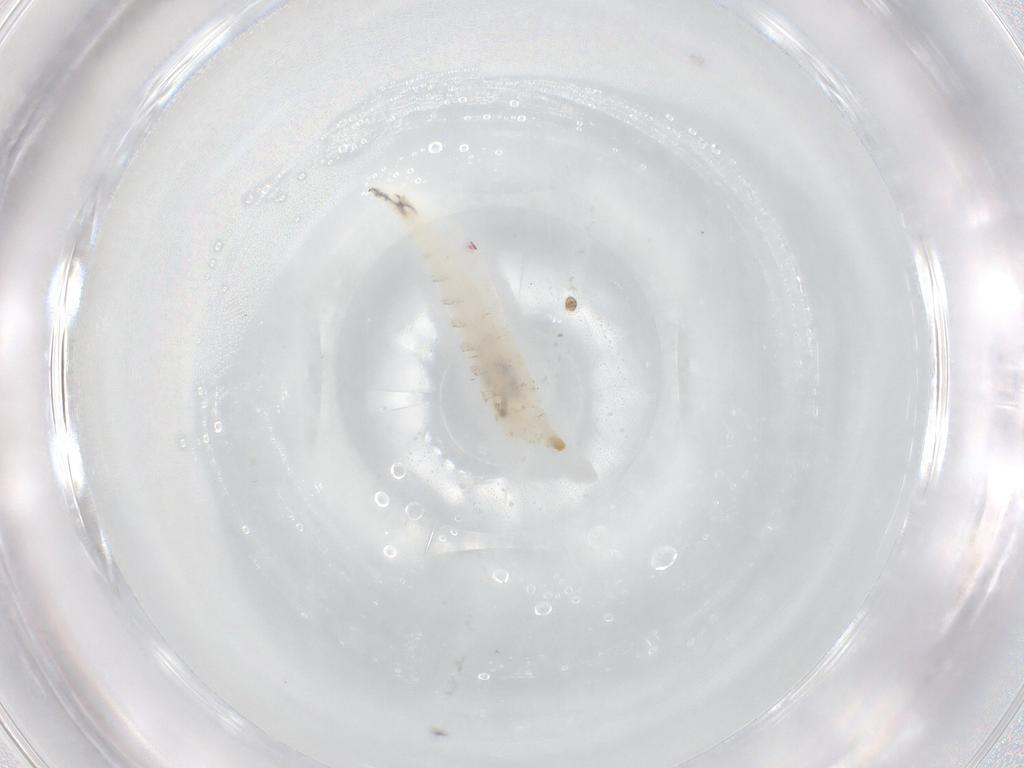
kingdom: Animalia
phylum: Arthropoda
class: Insecta
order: Diptera
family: Drosophilidae
